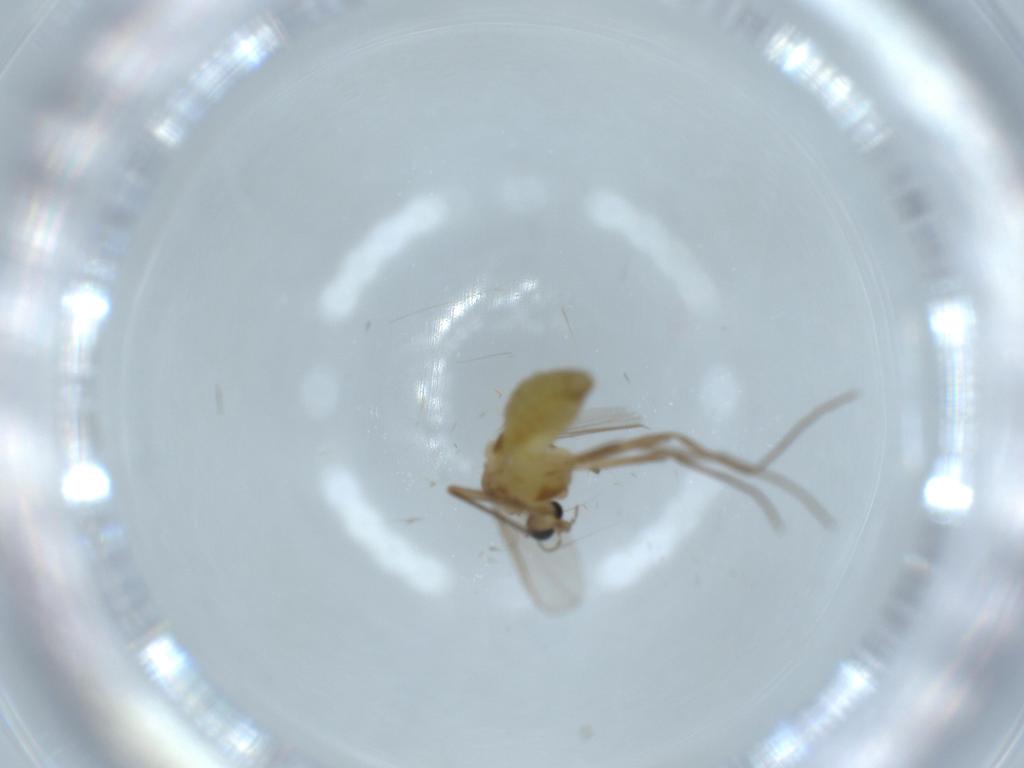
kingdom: Animalia
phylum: Arthropoda
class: Insecta
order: Diptera
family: Chironomidae
